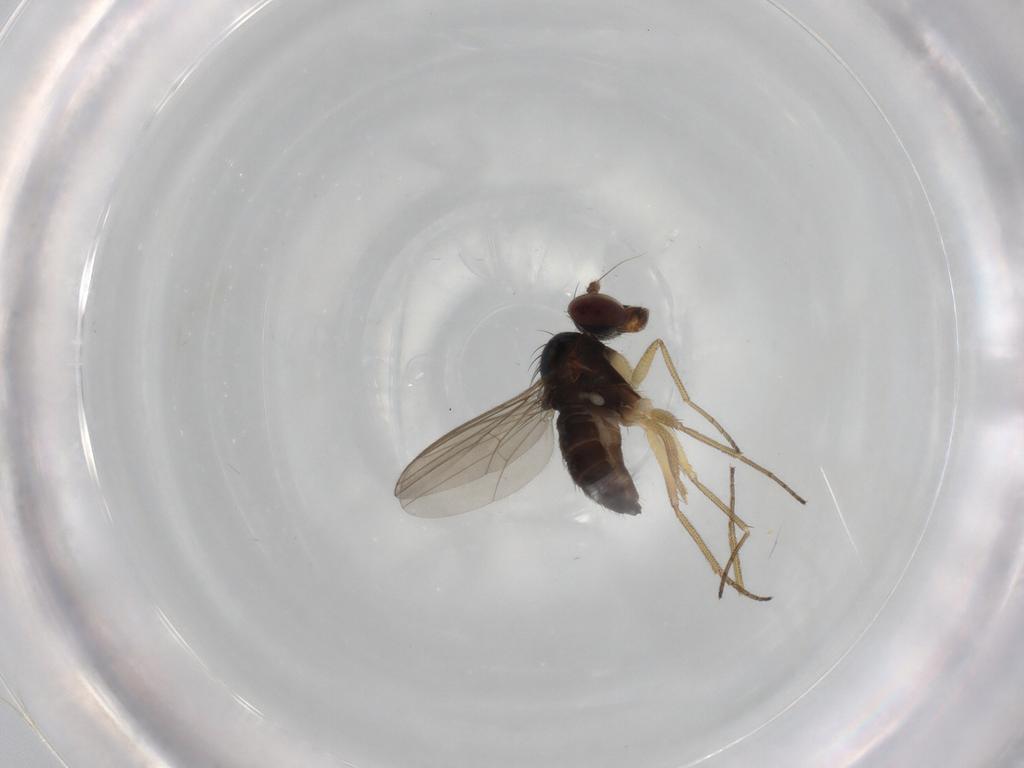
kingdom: Animalia
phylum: Arthropoda
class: Insecta
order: Diptera
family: Dolichopodidae
